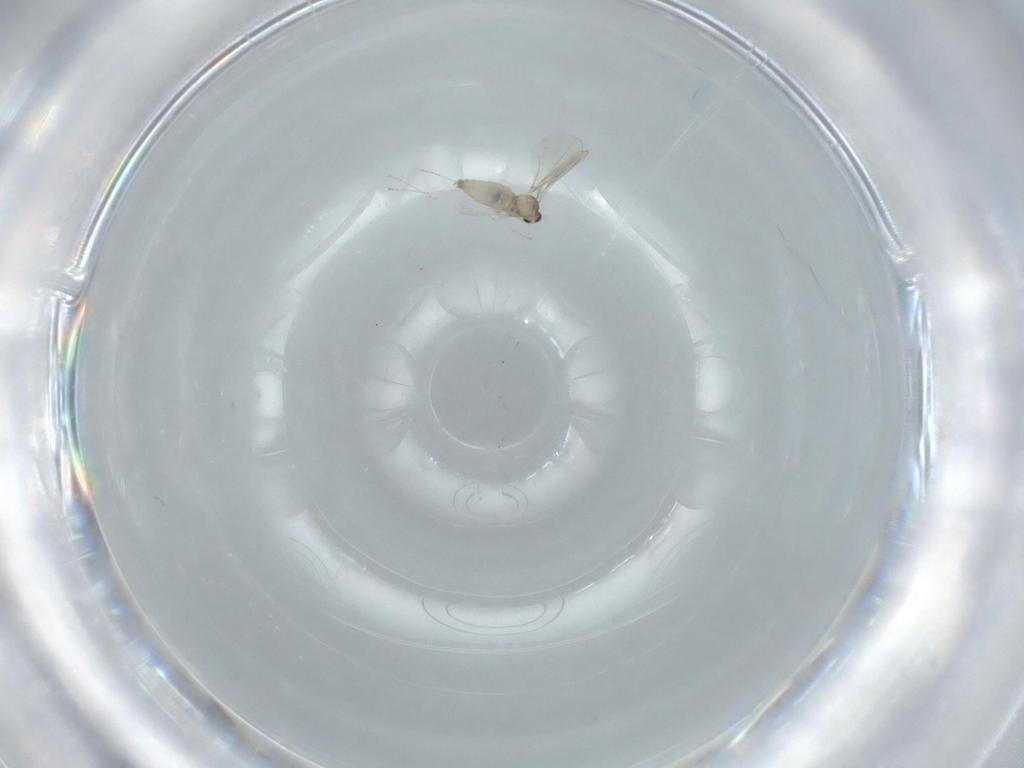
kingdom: Animalia
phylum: Arthropoda
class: Insecta
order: Diptera
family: Cecidomyiidae
